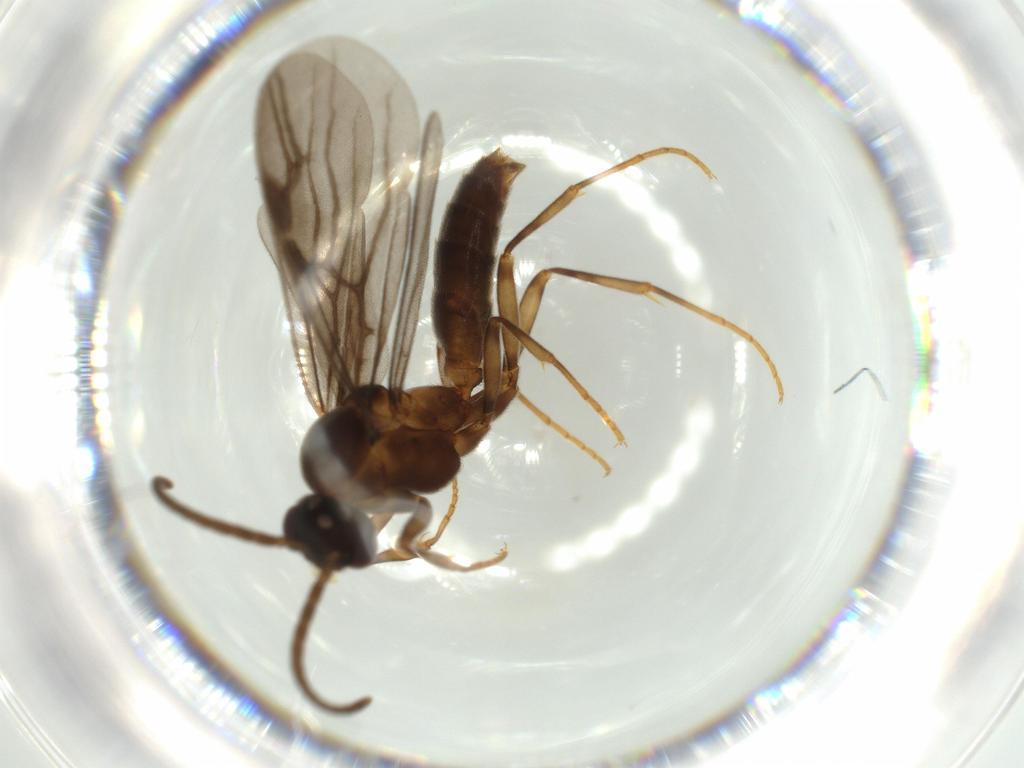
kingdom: Animalia
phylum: Arthropoda
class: Insecta
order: Hymenoptera
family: Formicidae
